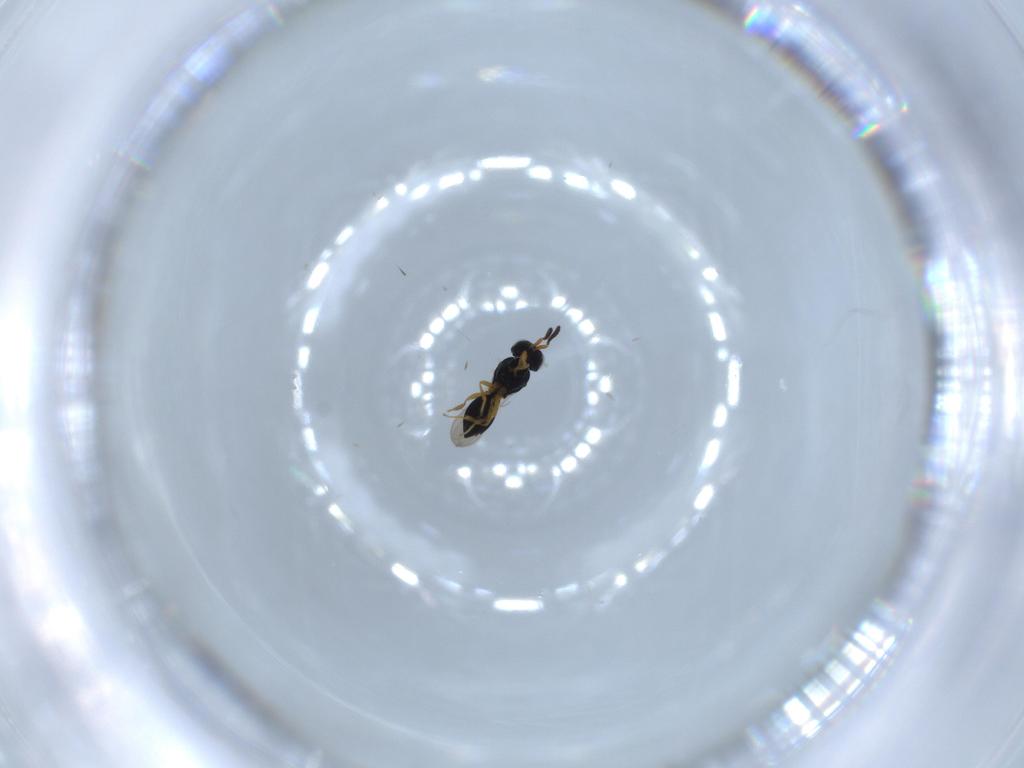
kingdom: Animalia
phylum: Arthropoda
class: Insecta
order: Hymenoptera
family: Scelionidae
